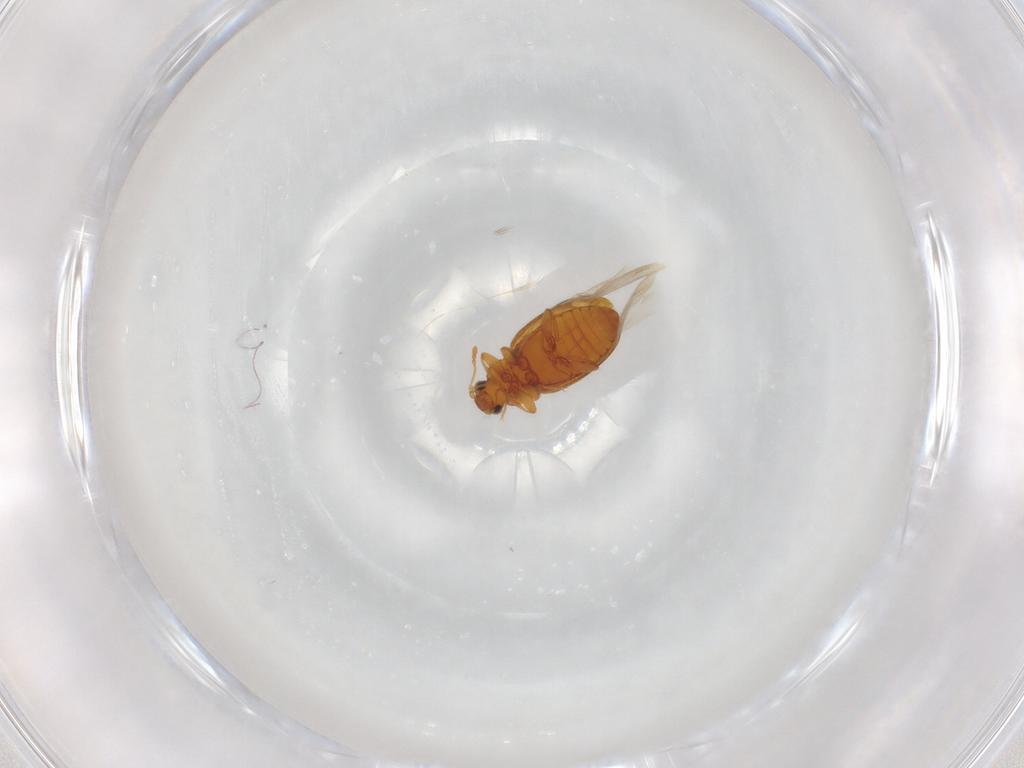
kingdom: Animalia
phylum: Arthropoda
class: Insecta
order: Coleoptera
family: Latridiidae
